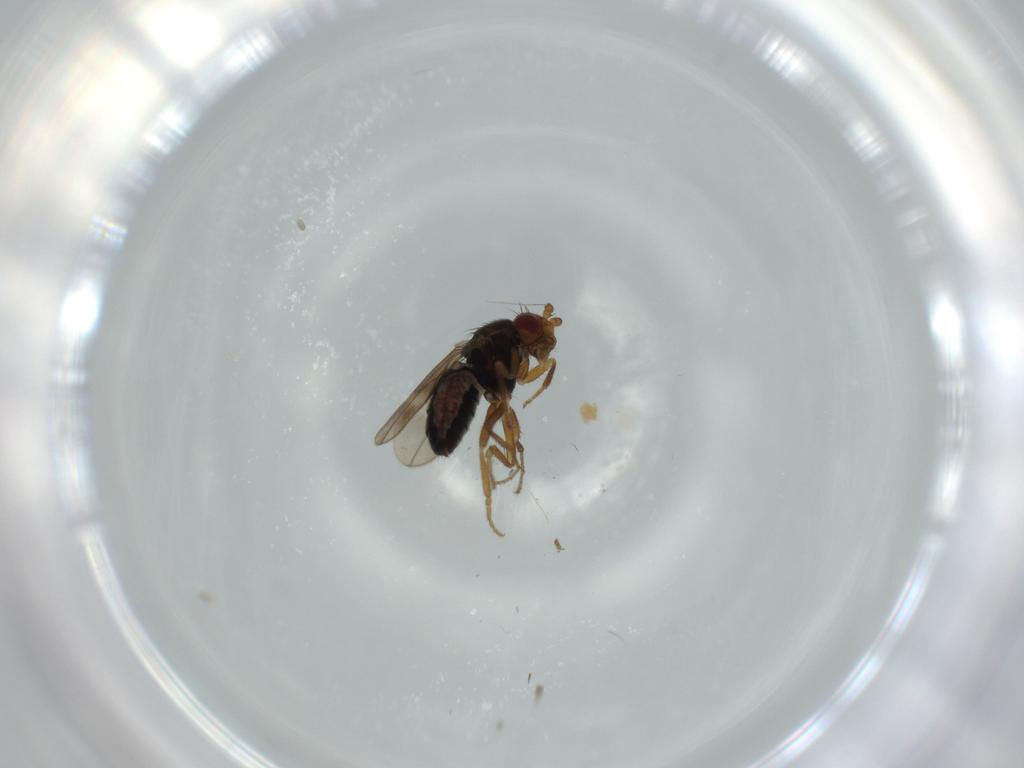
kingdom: Animalia
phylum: Arthropoda
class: Insecta
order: Diptera
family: Sphaeroceridae
